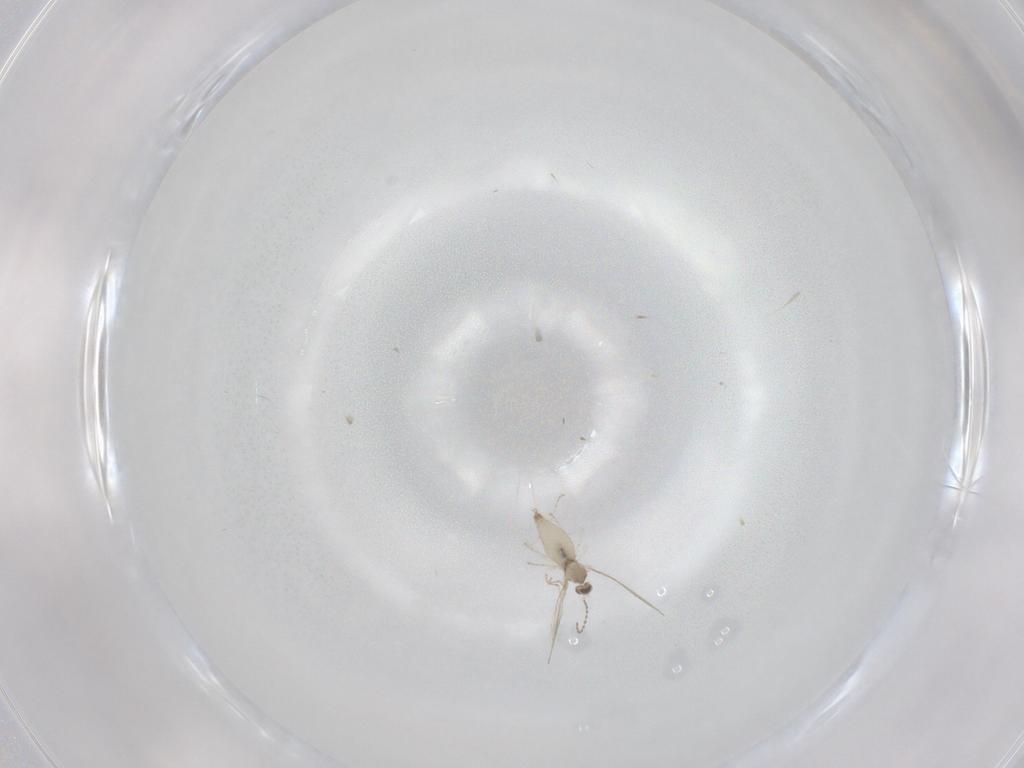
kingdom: Animalia
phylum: Arthropoda
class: Insecta
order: Diptera
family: Cecidomyiidae
